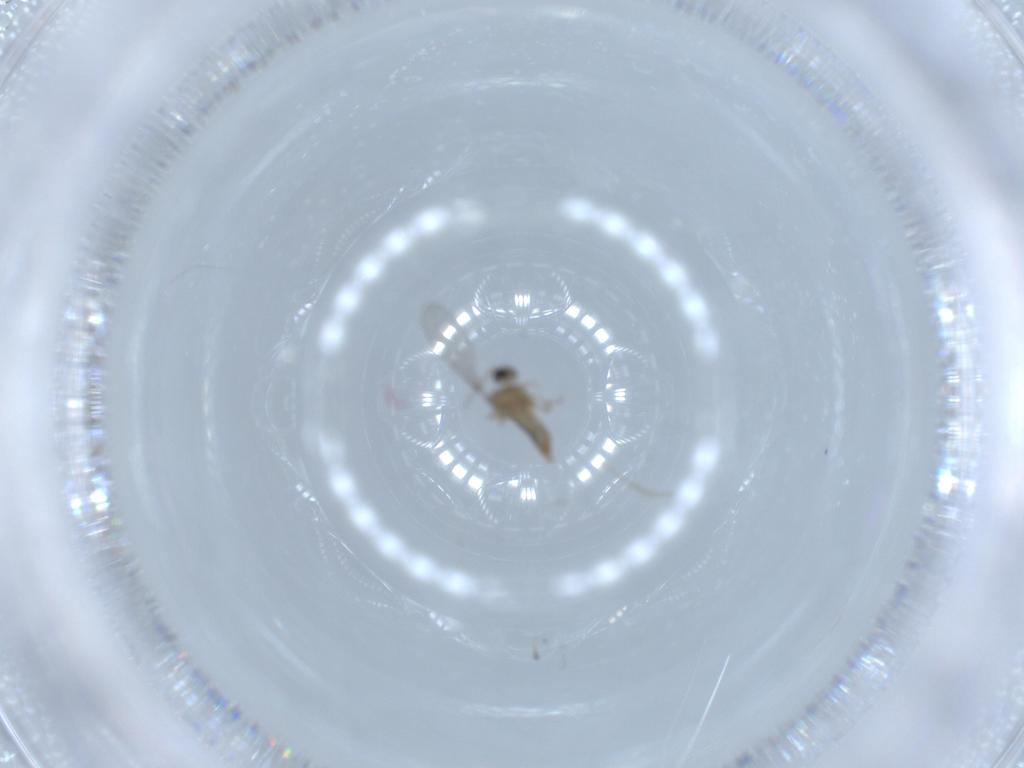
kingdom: Animalia
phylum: Arthropoda
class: Insecta
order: Diptera
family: Cecidomyiidae
